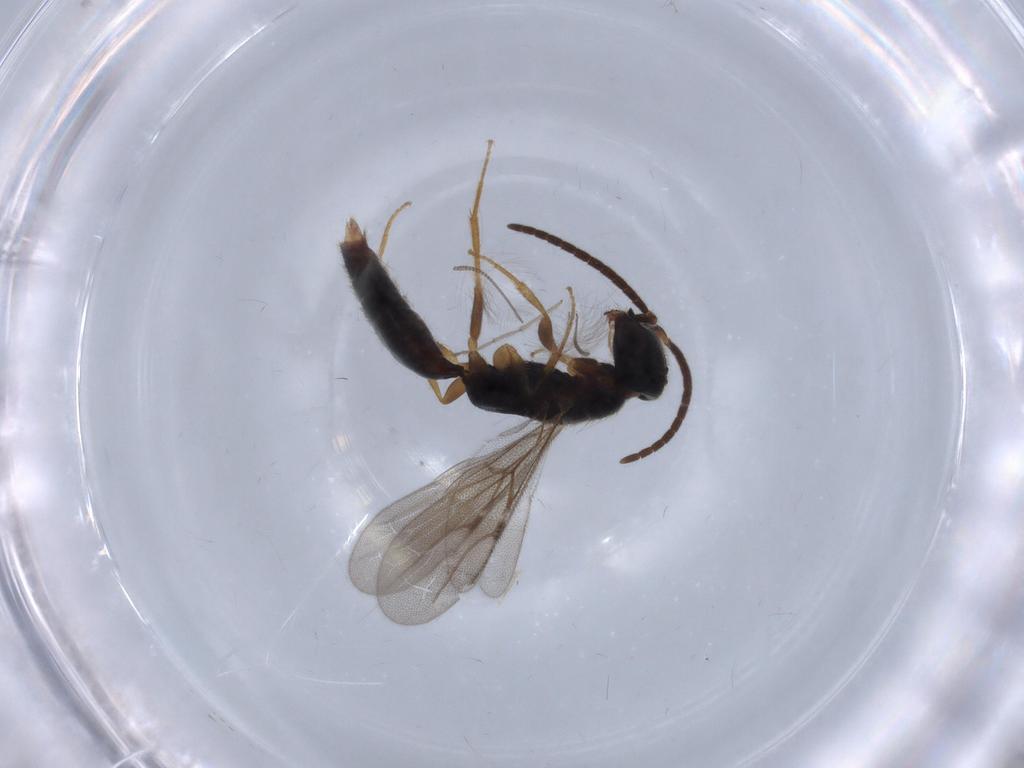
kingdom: Animalia
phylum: Arthropoda
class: Insecta
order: Hymenoptera
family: Bethylidae
